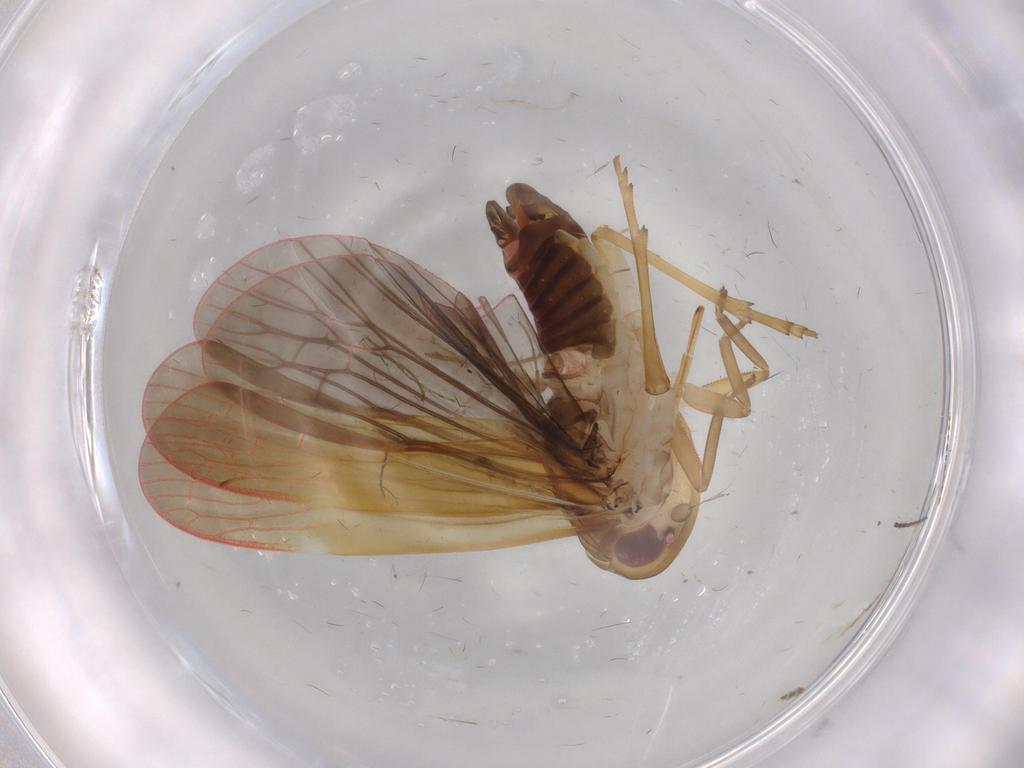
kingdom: Animalia
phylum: Arthropoda
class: Insecta
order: Hemiptera
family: Achilidae
